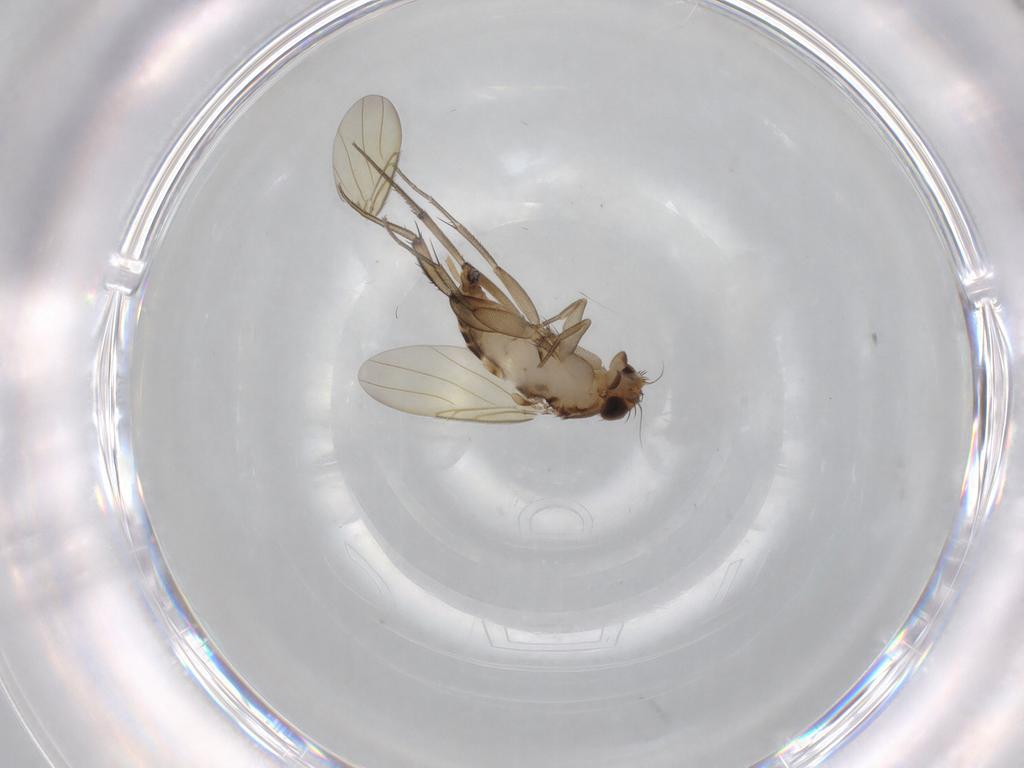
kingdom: Animalia
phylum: Arthropoda
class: Insecta
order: Diptera
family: Phoridae
